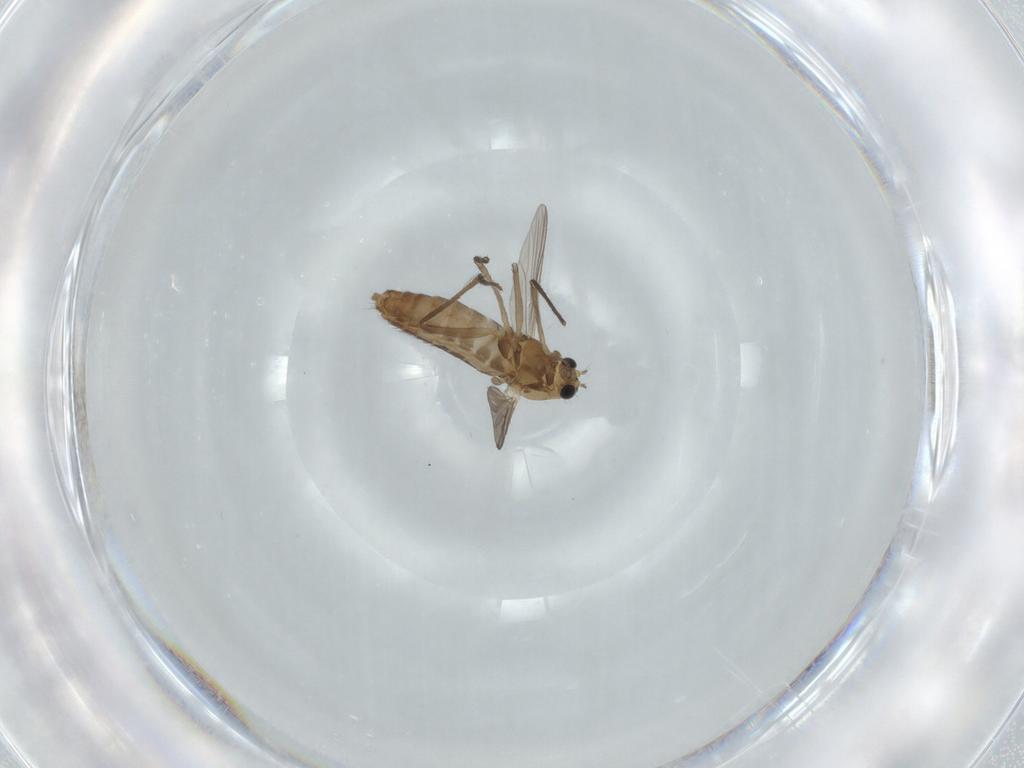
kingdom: Animalia
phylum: Arthropoda
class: Insecta
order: Diptera
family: Chironomidae
